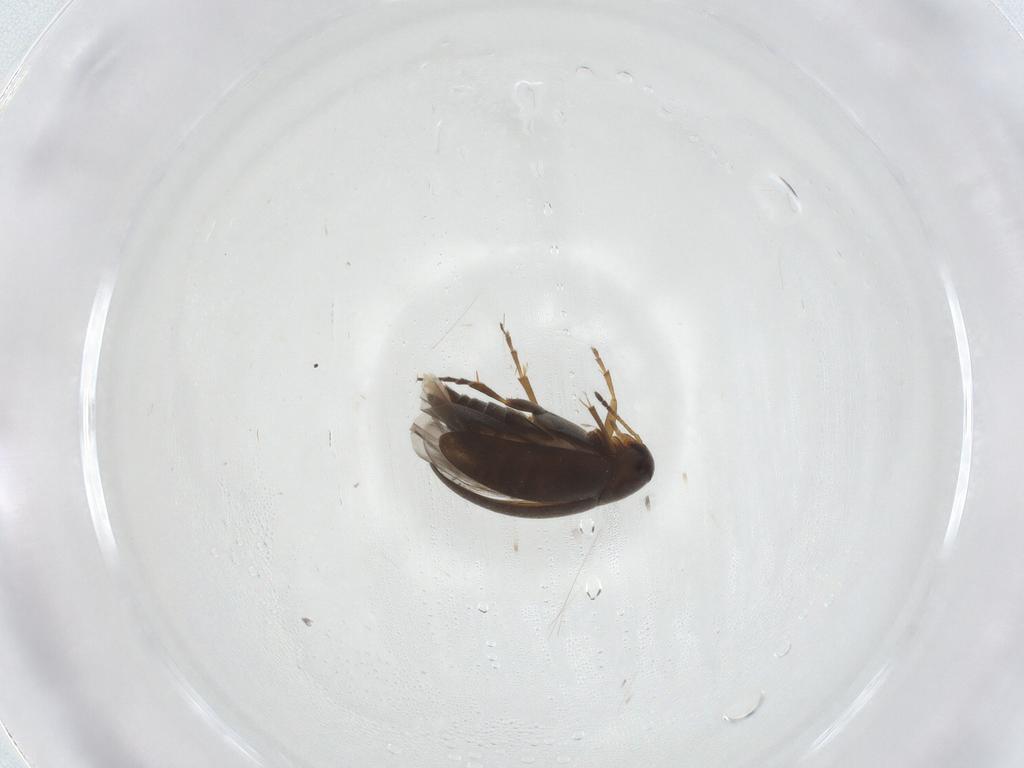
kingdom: Animalia
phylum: Arthropoda
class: Insecta
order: Coleoptera
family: Scraptiidae
